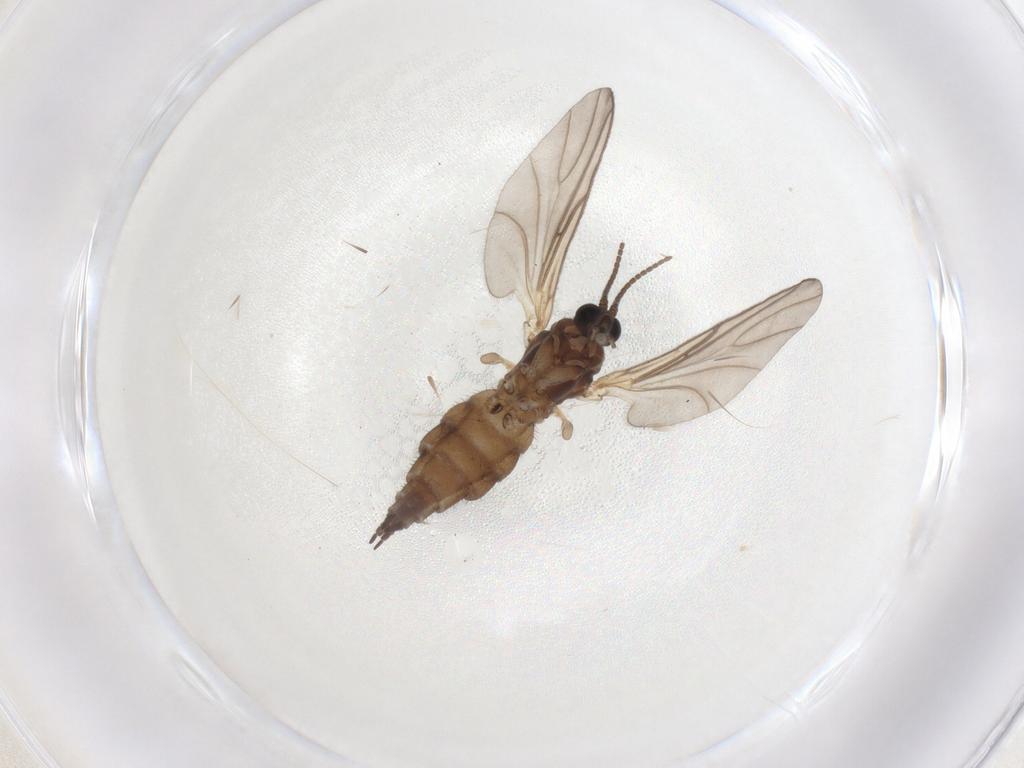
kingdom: Animalia
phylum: Arthropoda
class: Insecta
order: Diptera
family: Sciaridae
